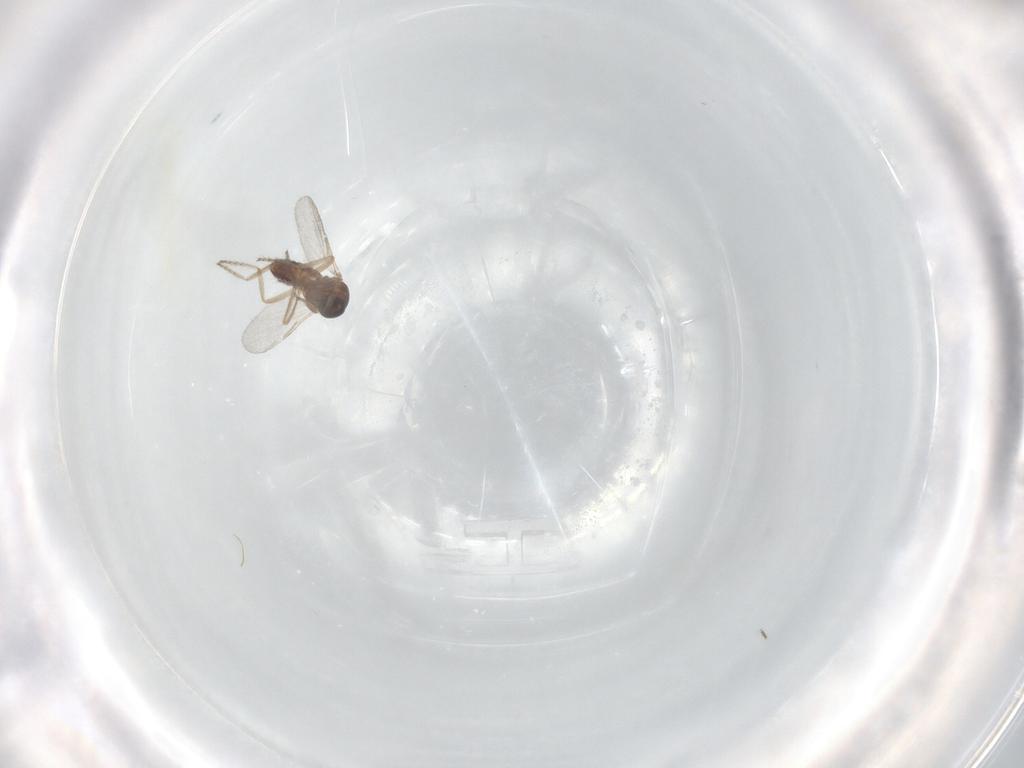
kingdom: Animalia
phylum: Arthropoda
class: Insecta
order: Diptera
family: Ceratopogonidae
